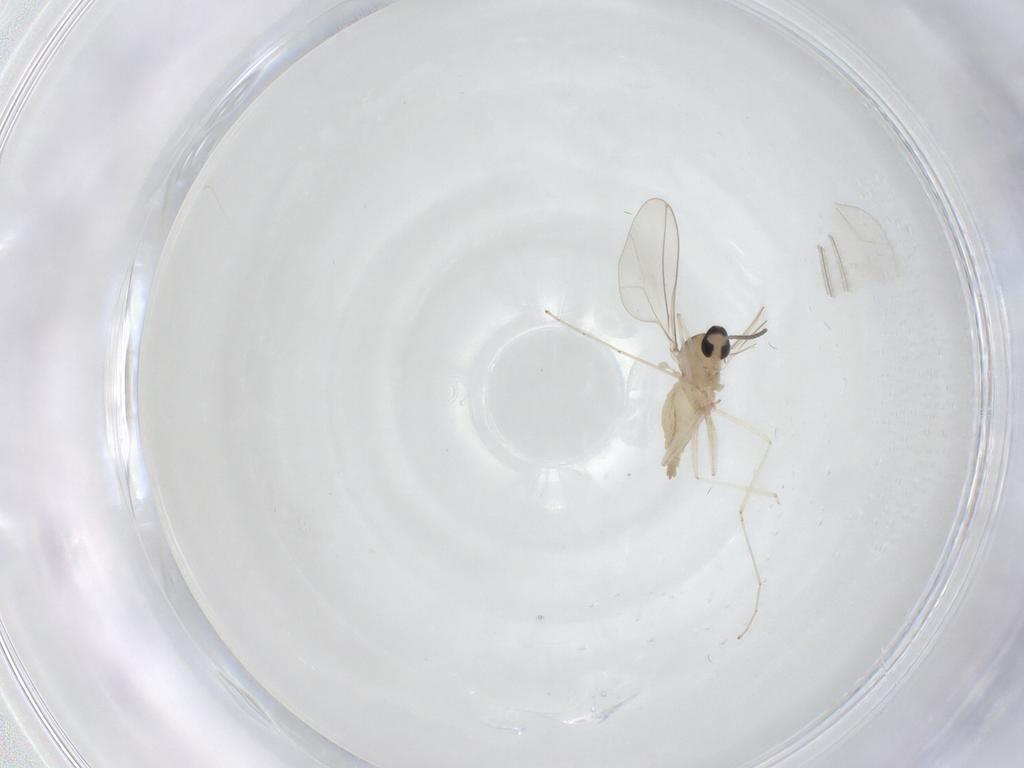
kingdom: Animalia
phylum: Arthropoda
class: Insecta
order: Diptera
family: Cecidomyiidae
